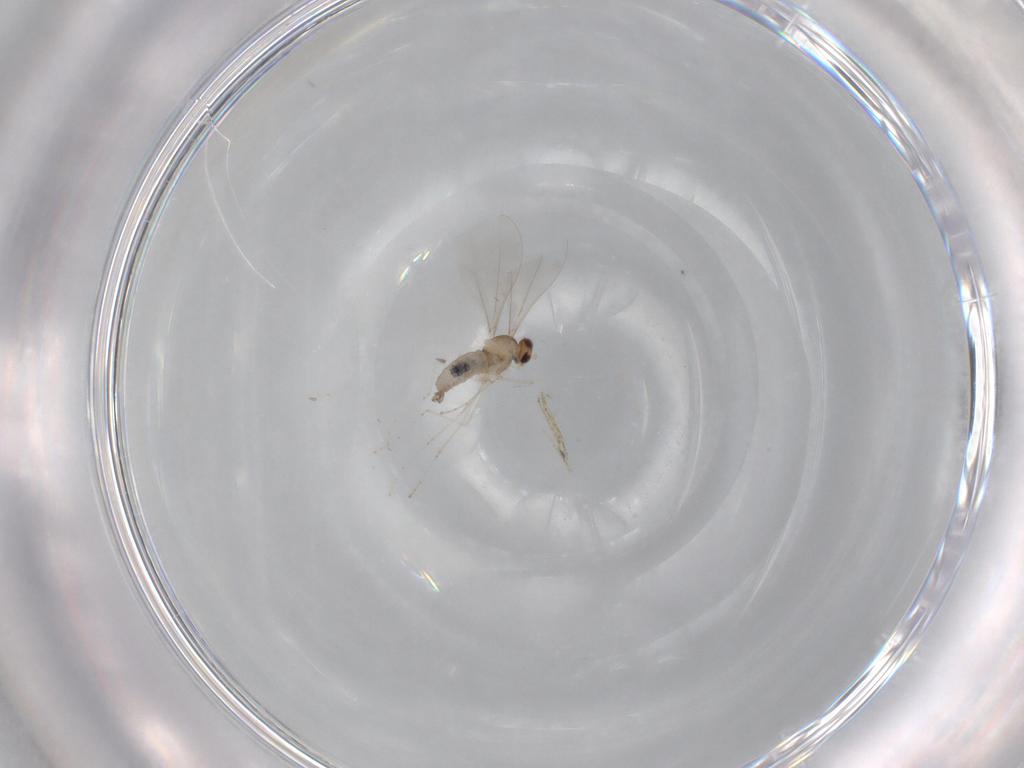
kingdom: Animalia
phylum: Arthropoda
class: Insecta
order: Diptera
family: Cecidomyiidae
